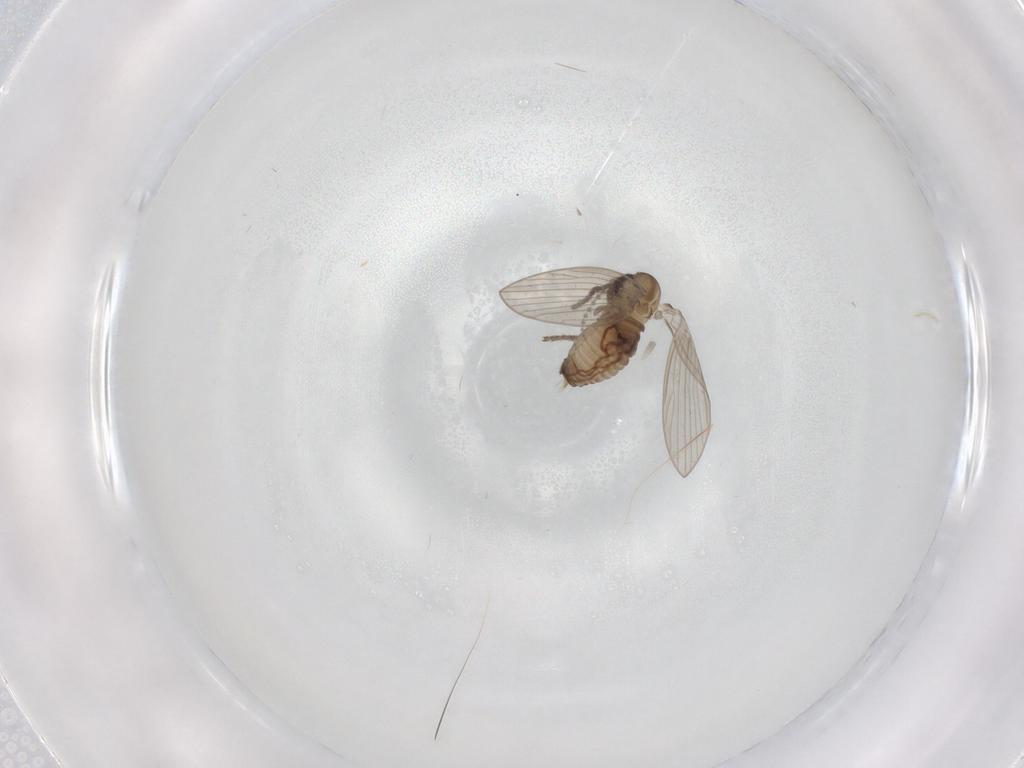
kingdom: Animalia
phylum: Arthropoda
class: Insecta
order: Diptera
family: Psychodidae
